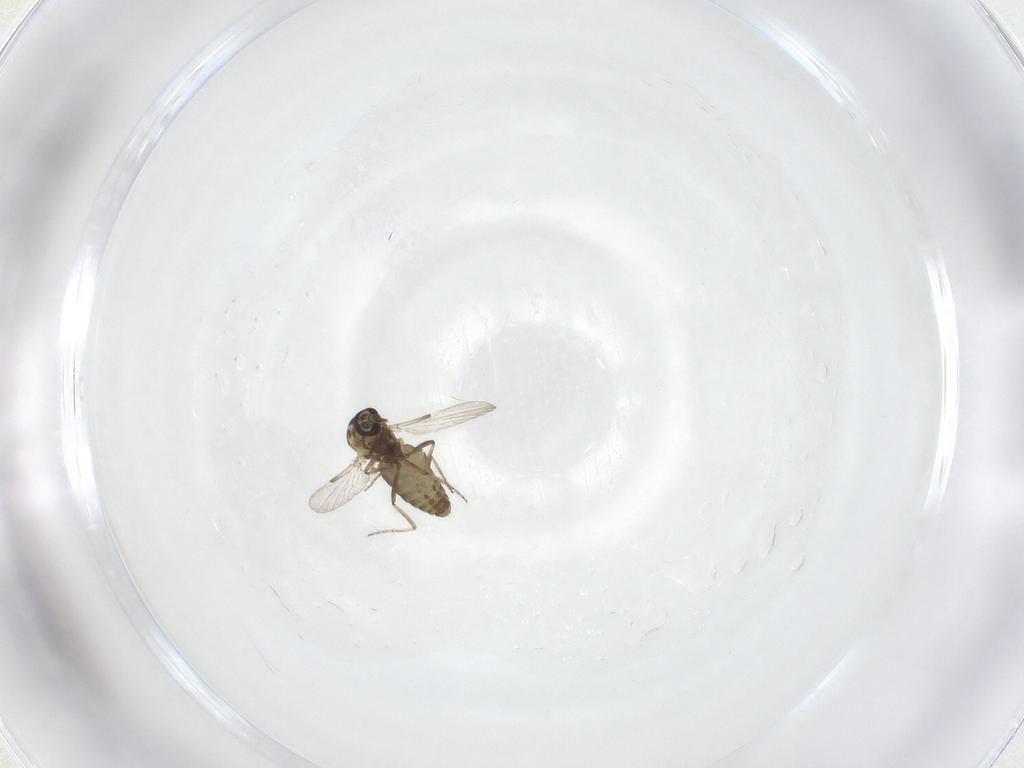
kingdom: Animalia
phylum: Arthropoda
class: Insecta
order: Diptera
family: Ceratopogonidae
